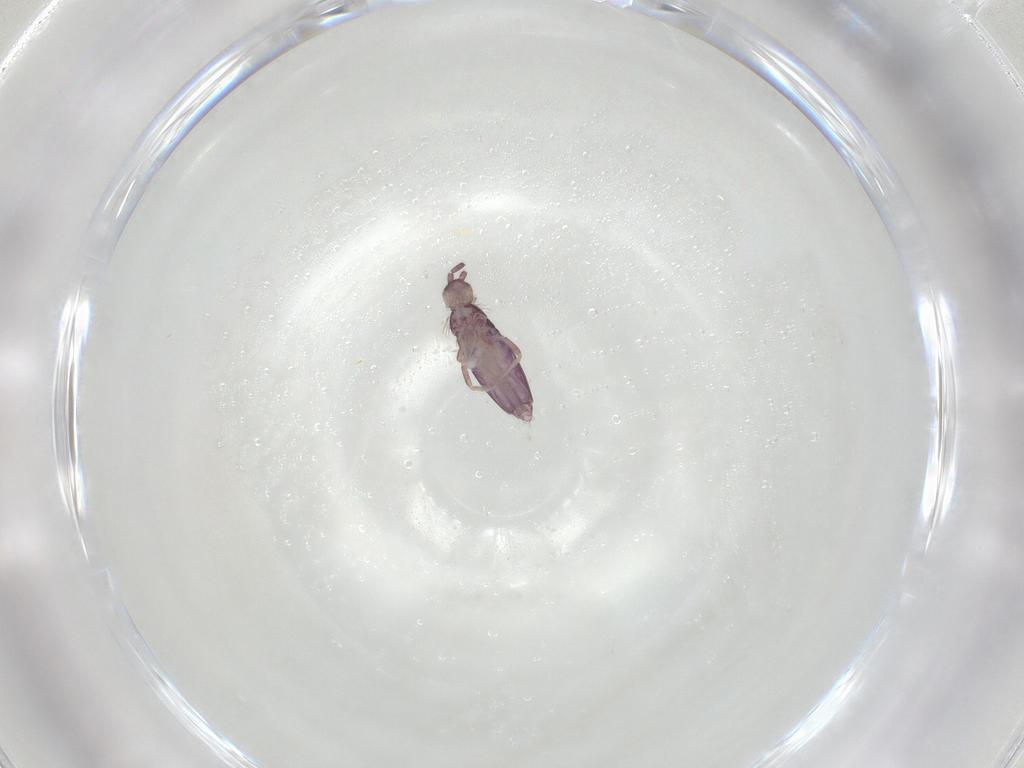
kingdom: Animalia
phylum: Arthropoda
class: Collembola
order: Entomobryomorpha
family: Entomobryidae
